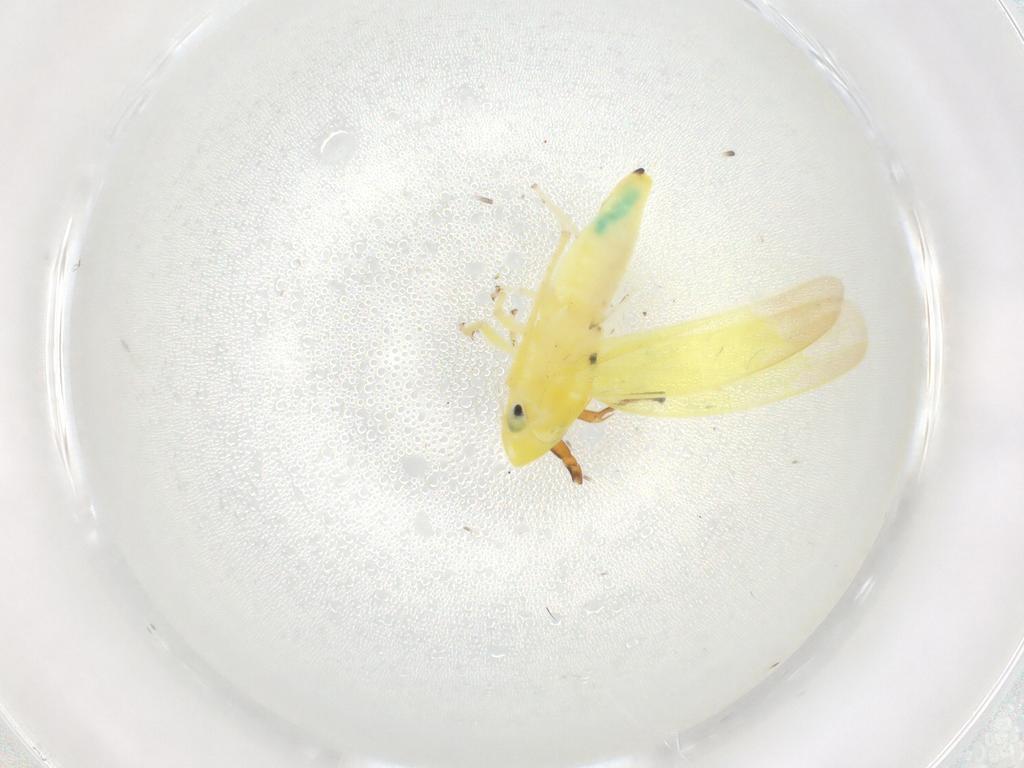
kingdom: Animalia
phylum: Arthropoda
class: Insecta
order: Hemiptera
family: Cicadellidae
